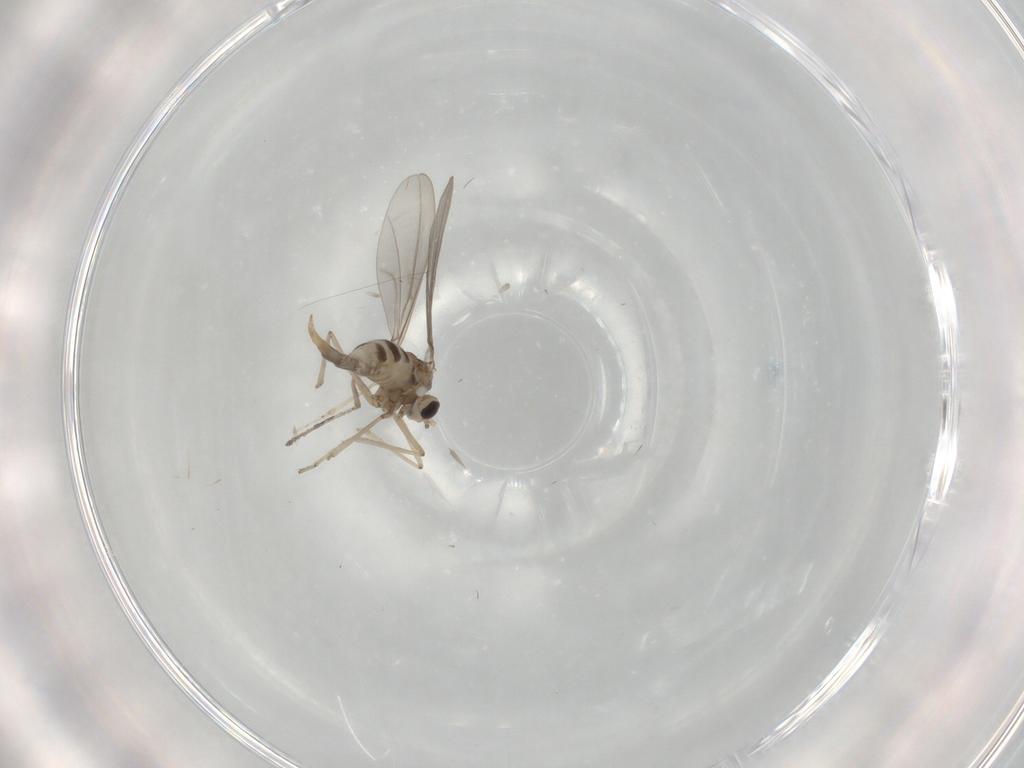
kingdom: Animalia
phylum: Arthropoda
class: Insecta
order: Diptera
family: Cecidomyiidae
